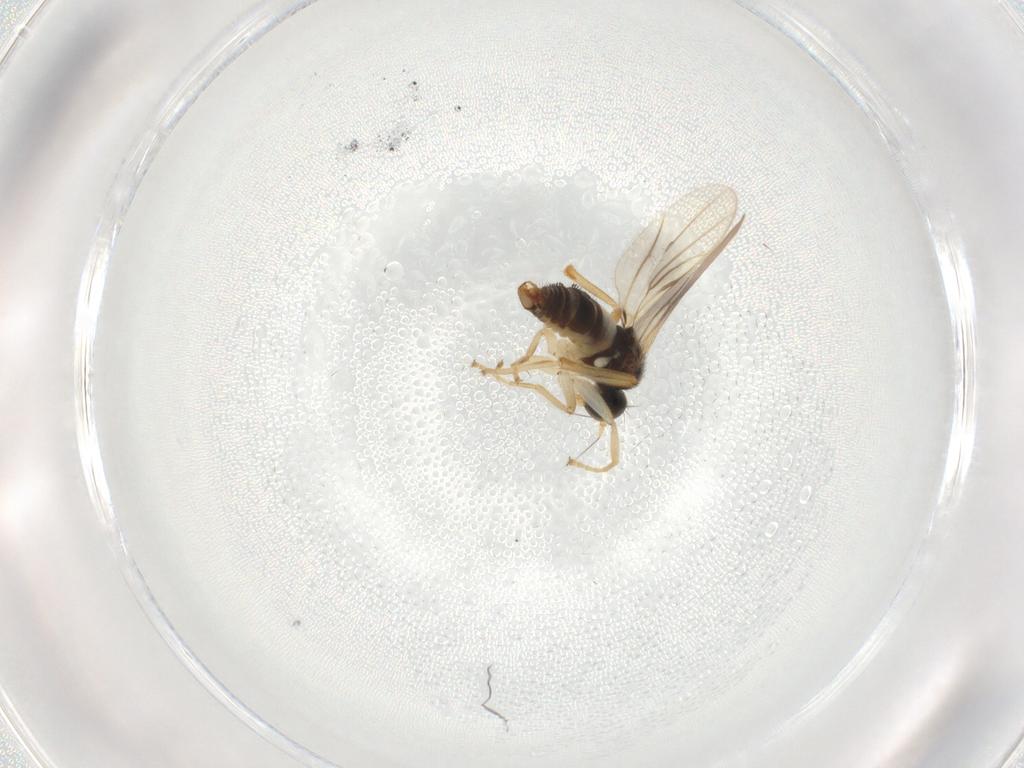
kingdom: Animalia
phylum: Arthropoda
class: Insecta
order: Diptera
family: Hybotidae
